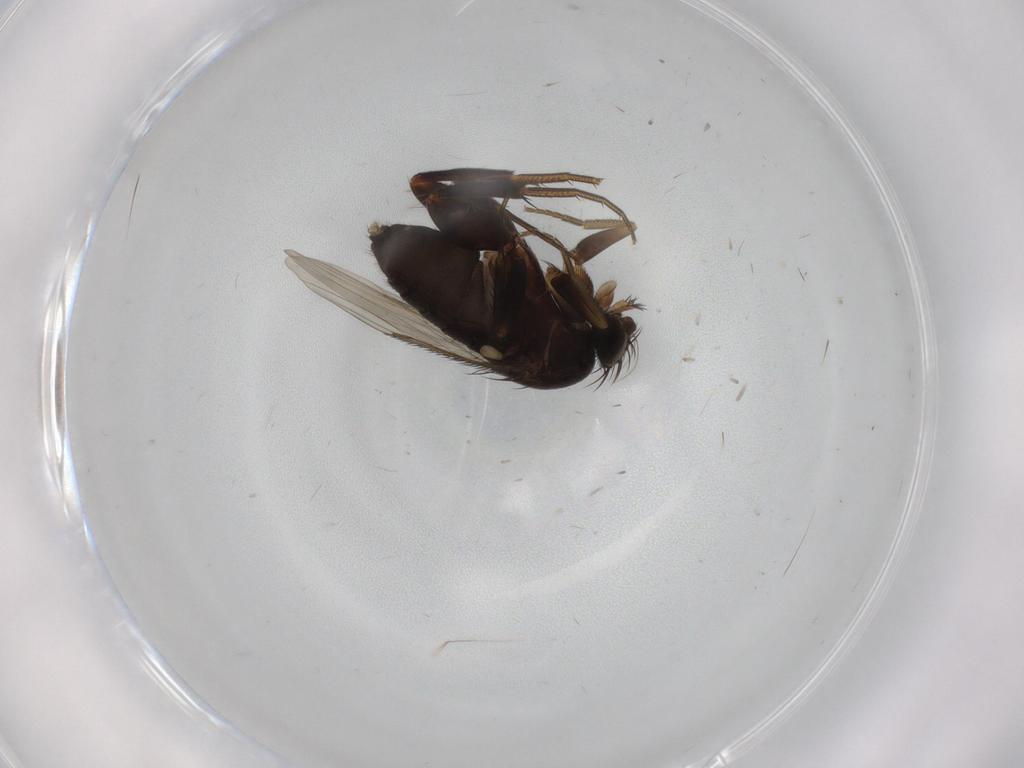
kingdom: Animalia
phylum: Arthropoda
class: Insecta
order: Diptera
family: Phoridae
